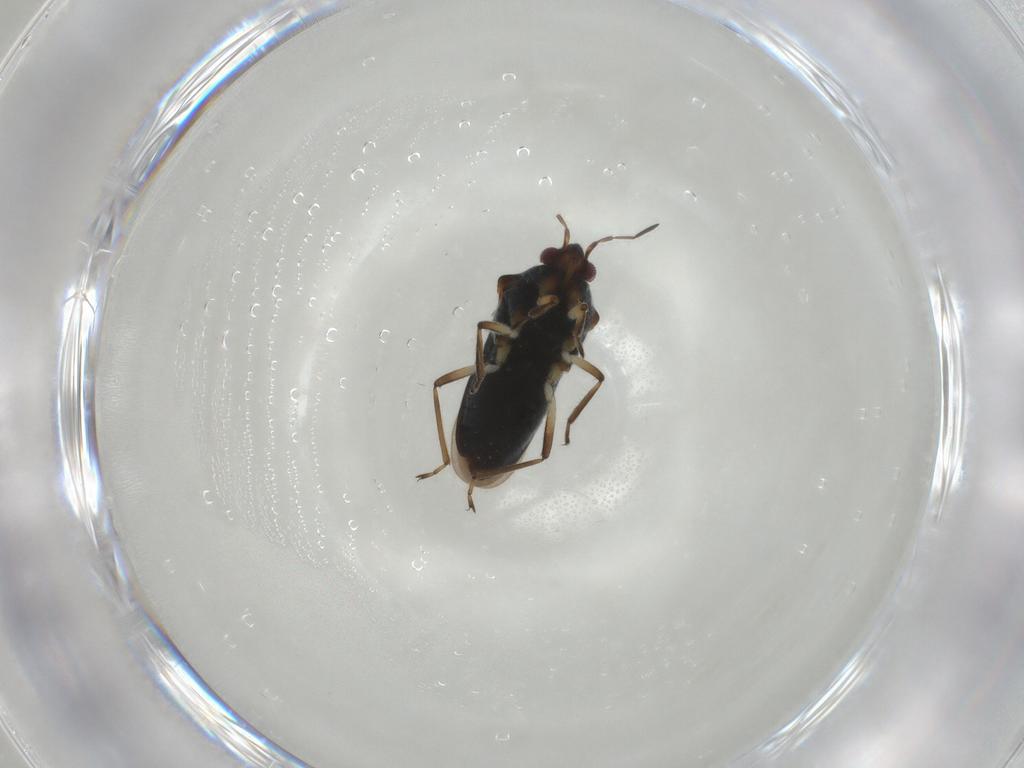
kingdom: Animalia
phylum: Arthropoda
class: Insecta
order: Hemiptera
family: Veliidae
